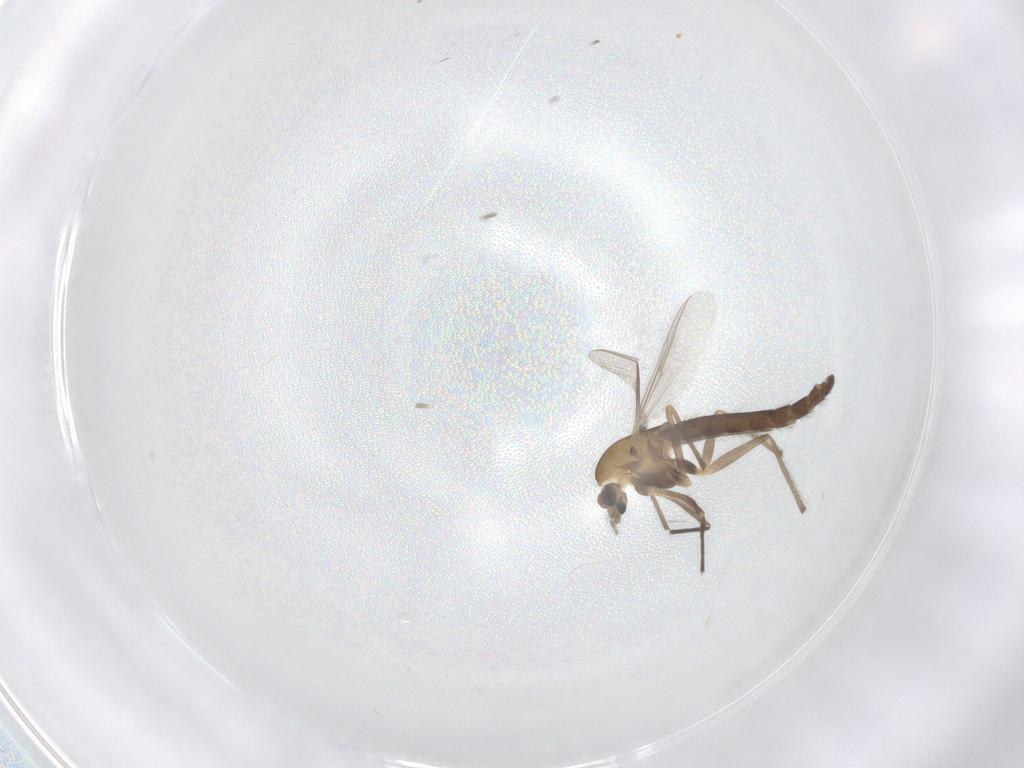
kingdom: Animalia
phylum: Arthropoda
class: Insecta
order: Diptera
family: Chironomidae
